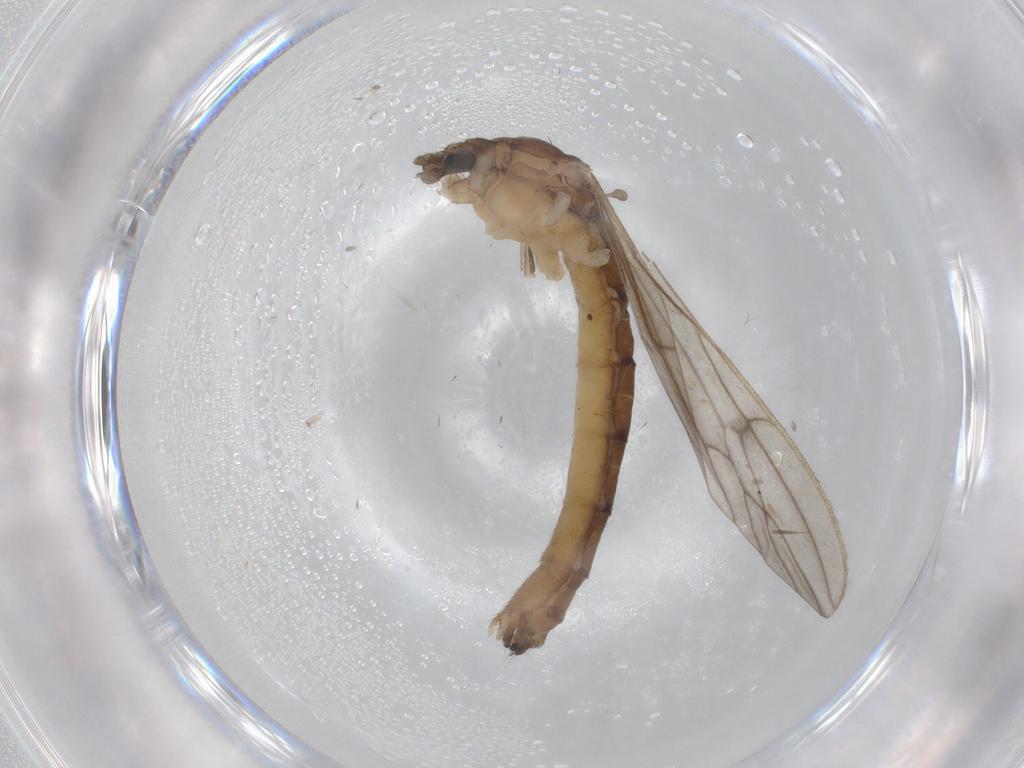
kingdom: Animalia
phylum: Arthropoda
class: Insecta
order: Diptera
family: Limoniidae
